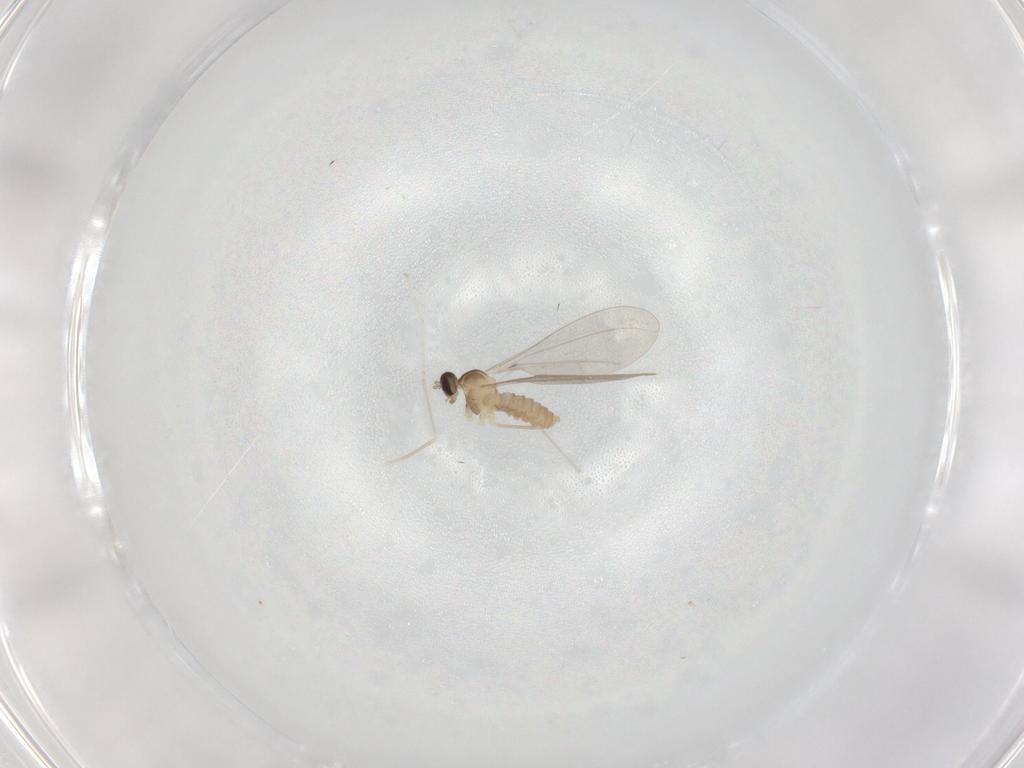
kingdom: Animalia
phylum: Arthropoda
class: Insecta
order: Diptera
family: Cecidomyiidae
